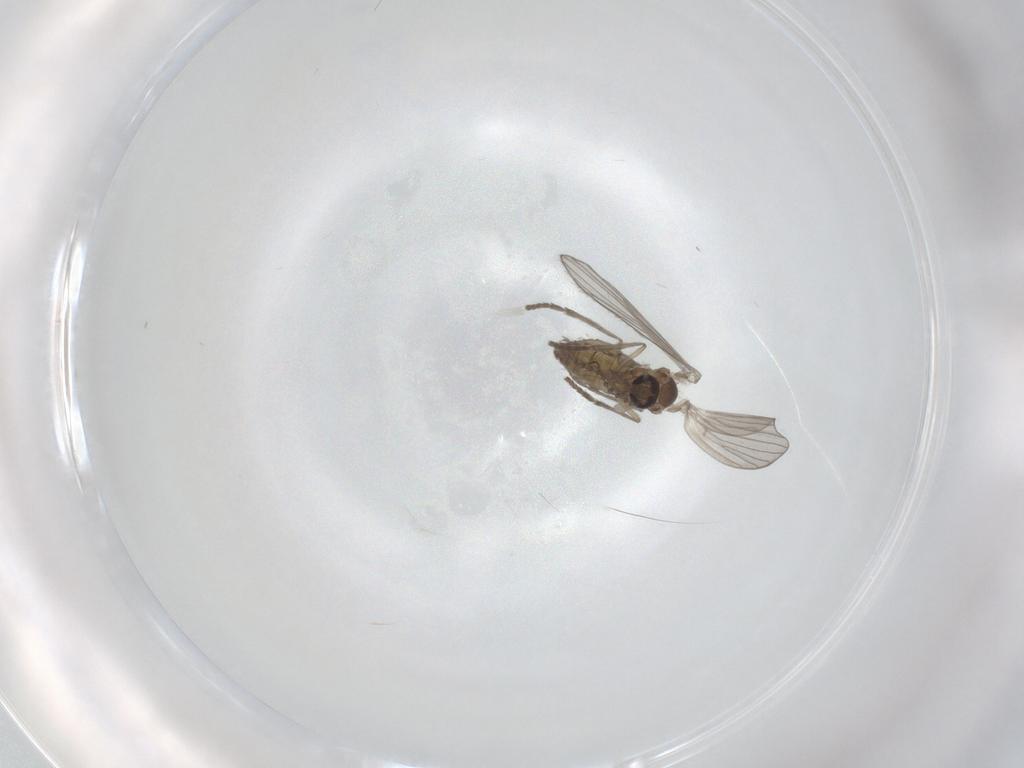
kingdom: Animalia
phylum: Arthropoda
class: Insecta
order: Diptera
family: Psychodidae
